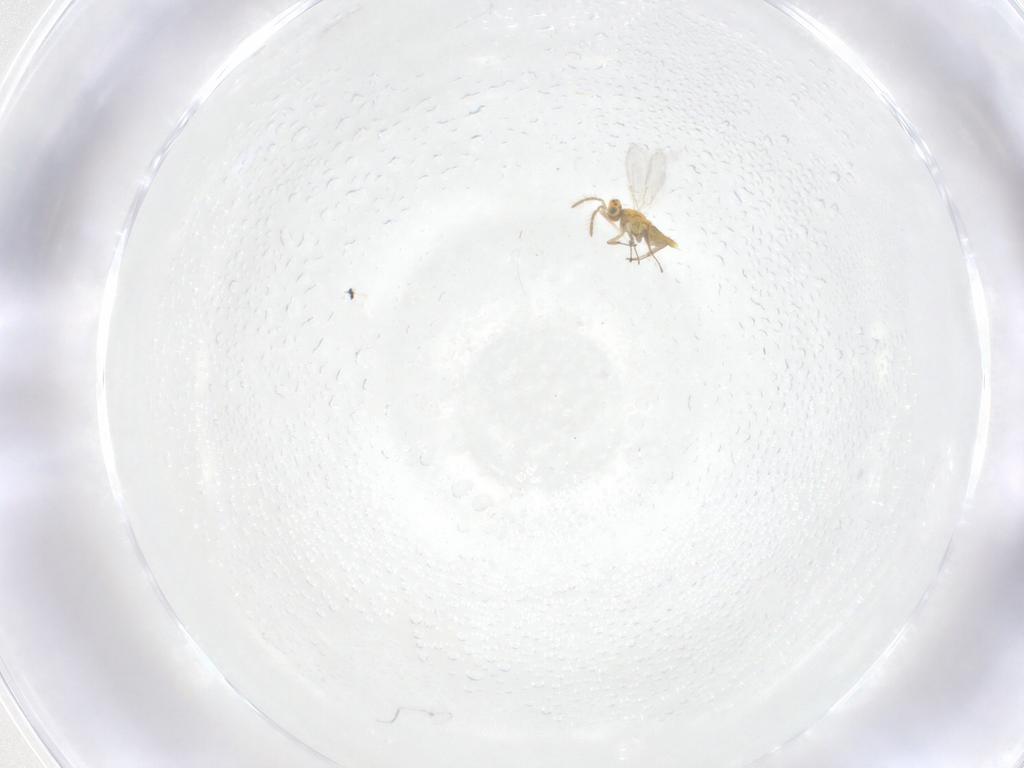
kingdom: Animalia
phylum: Arthropoda
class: Insecta
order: Hymenoptera
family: Aphelinidae
